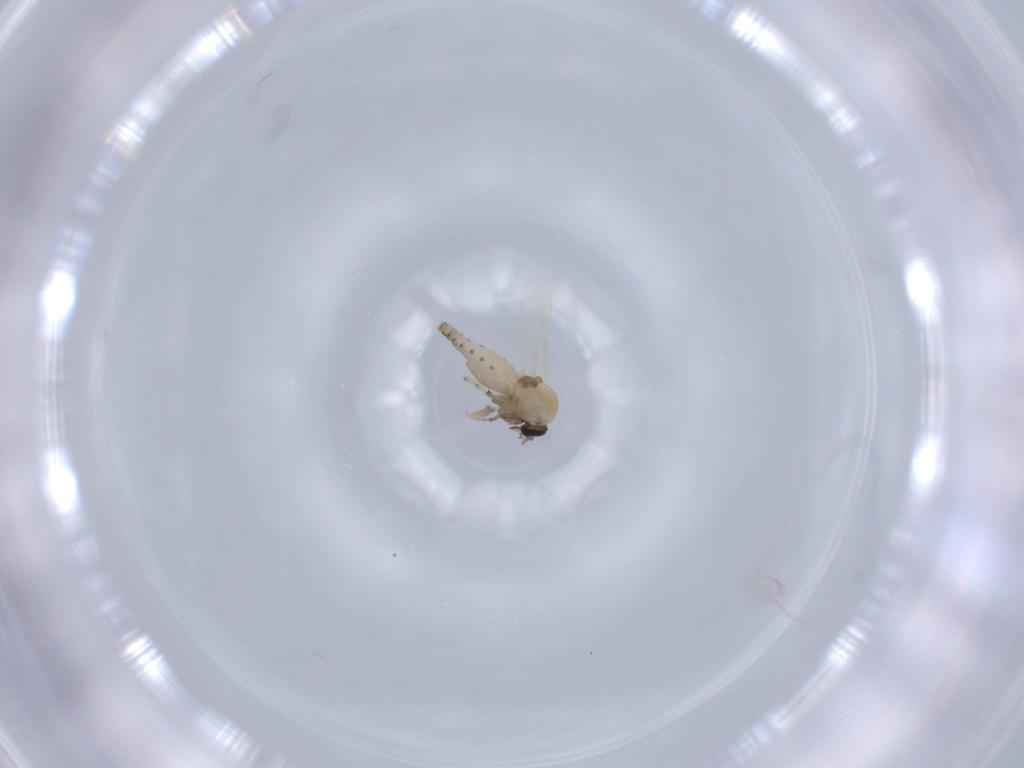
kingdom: Animalia
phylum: Arthropoda
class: Insecta
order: Diptera
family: Ceratopogonidae
